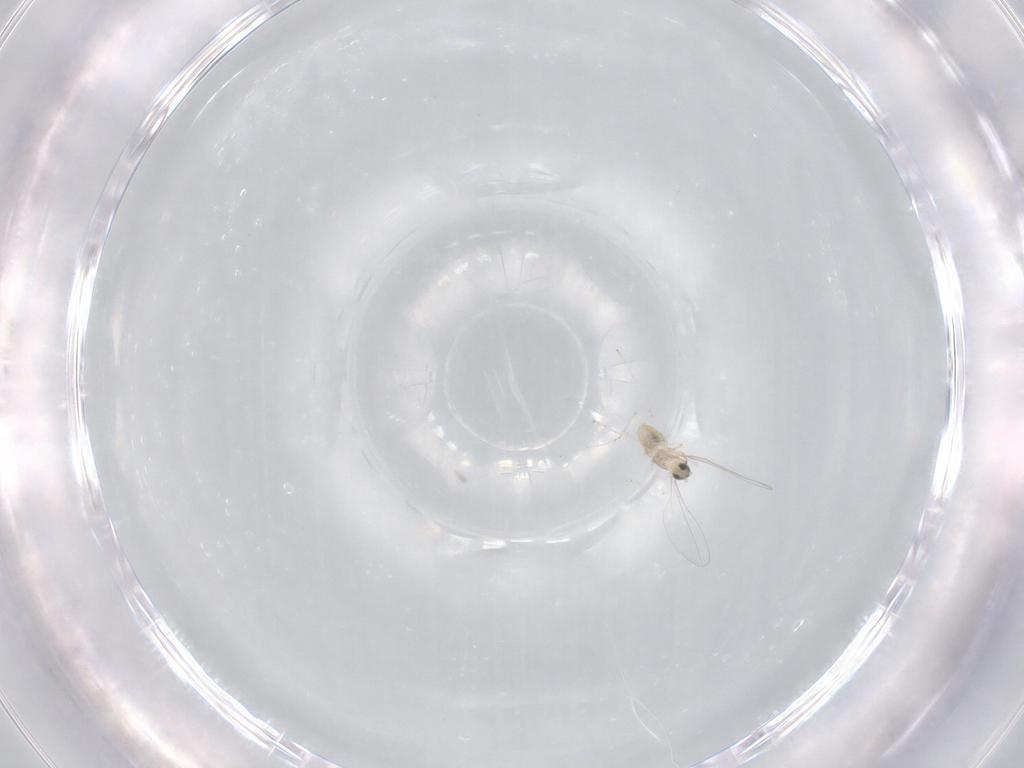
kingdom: Animalia
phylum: Arthropoda
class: Insecta
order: Diptera
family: Cecidomyiidae
